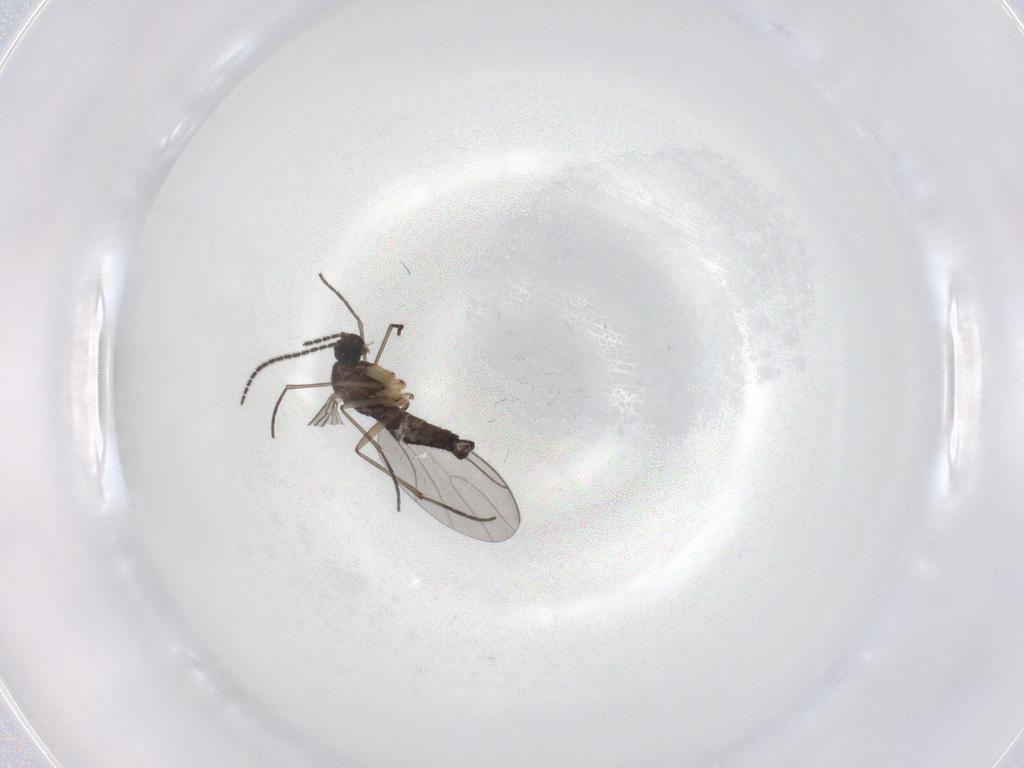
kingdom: Animalia
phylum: Arthropoda
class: Insecta
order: Diptera
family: Sciaridae
